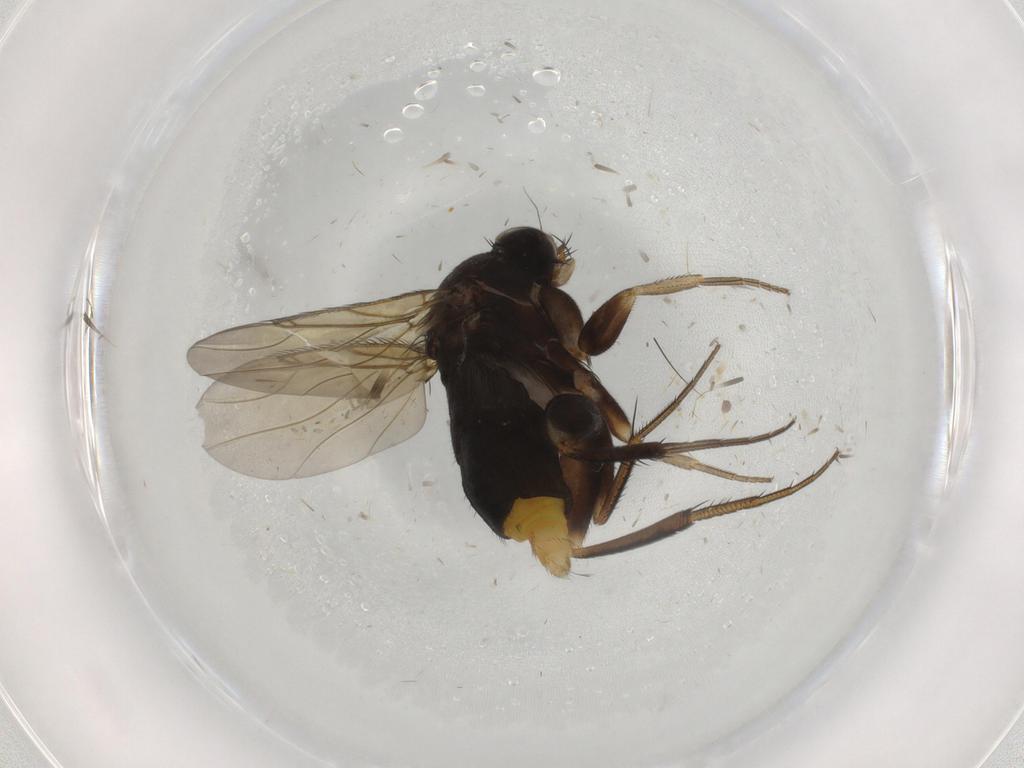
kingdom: Animalia
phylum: Arthropoda
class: Insecta
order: Diptera
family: Phoridae
